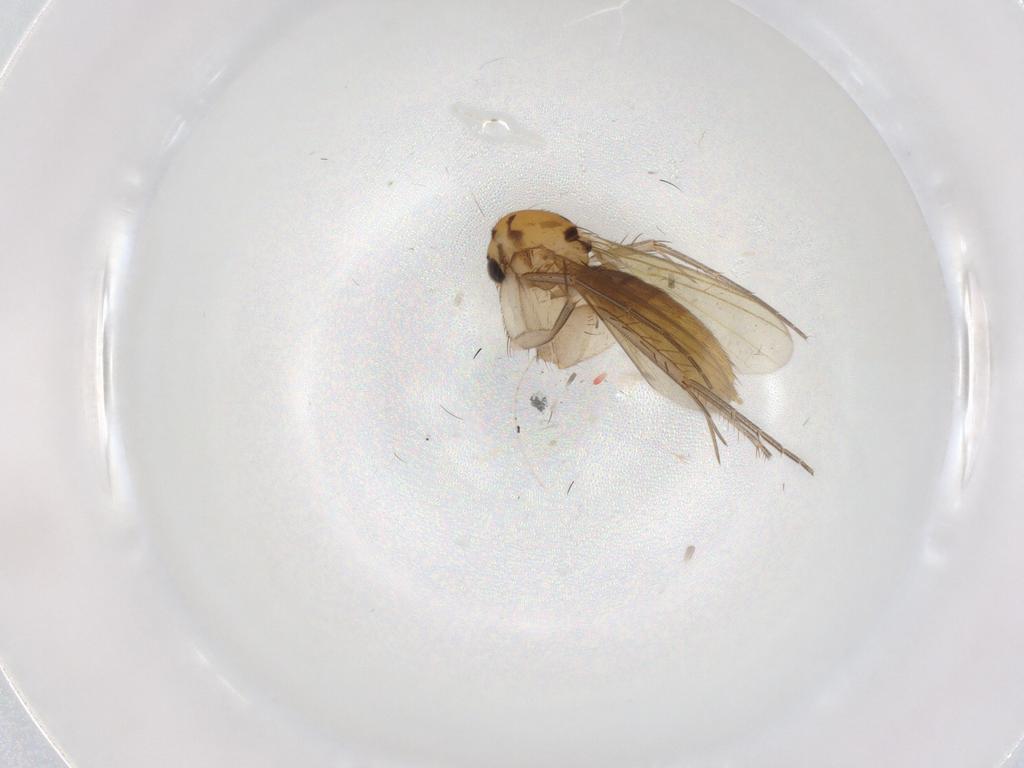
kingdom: Animalia
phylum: Arthropoda
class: Insecta
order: Diptera
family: Mycetophilidae
